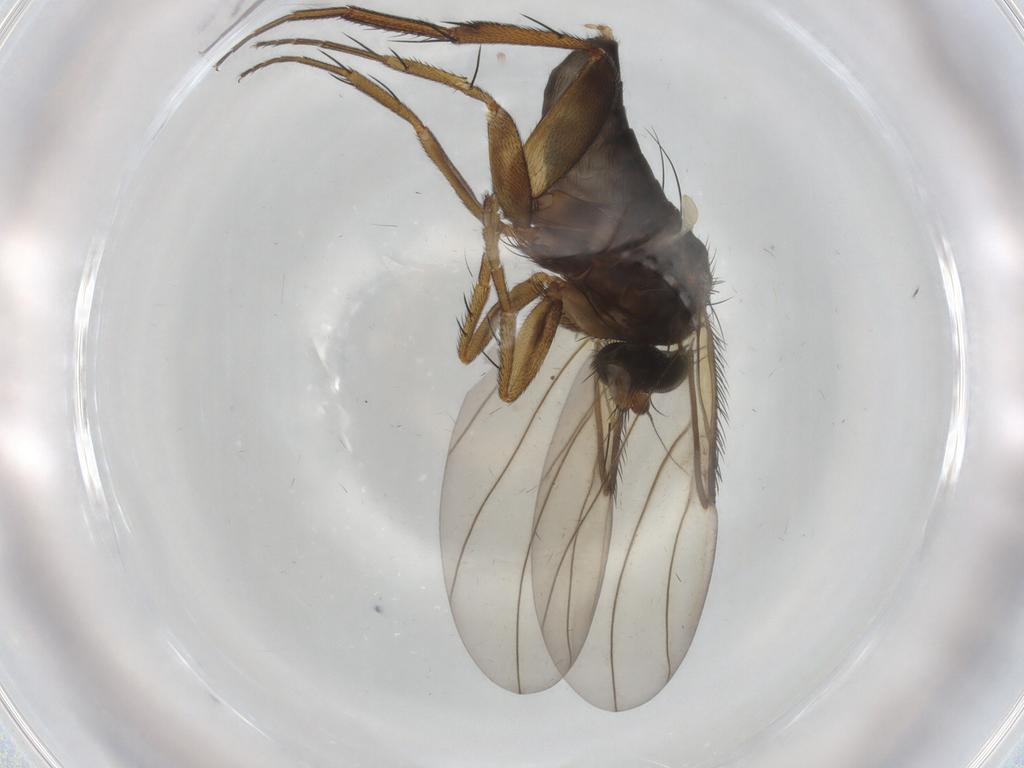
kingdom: Animalia
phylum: Arthropoda
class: Insecta
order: Diptera
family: Phoridae
